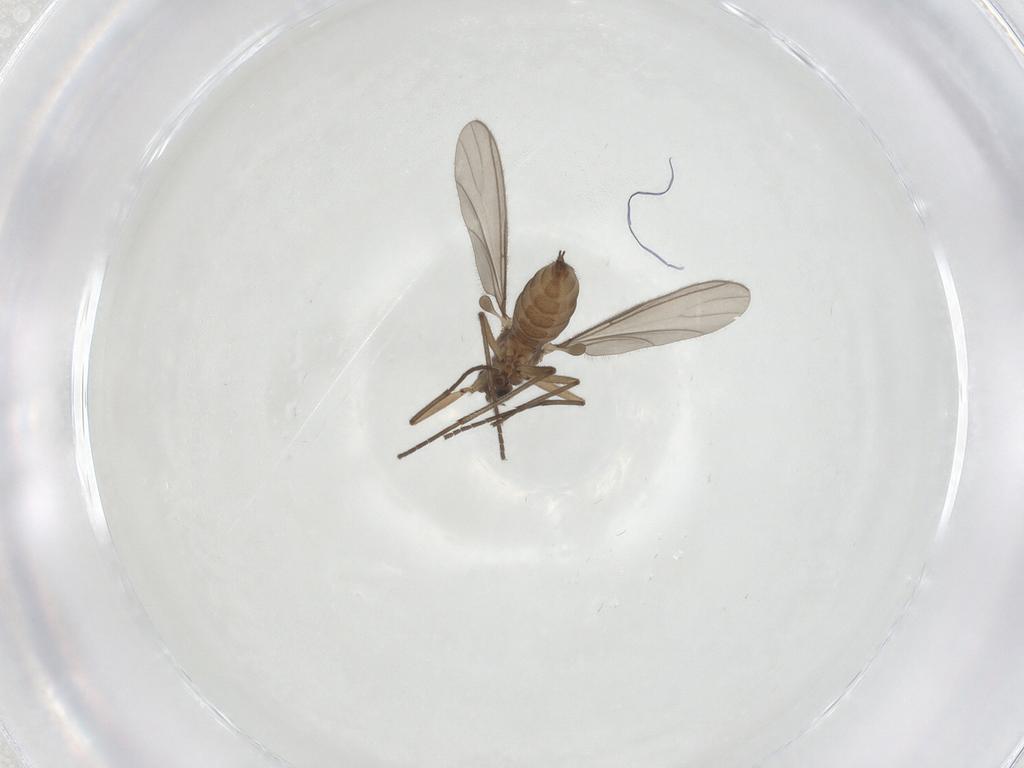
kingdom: Animalia
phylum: Arthropoda
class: Insecta
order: Diptera
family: Sciaridae
